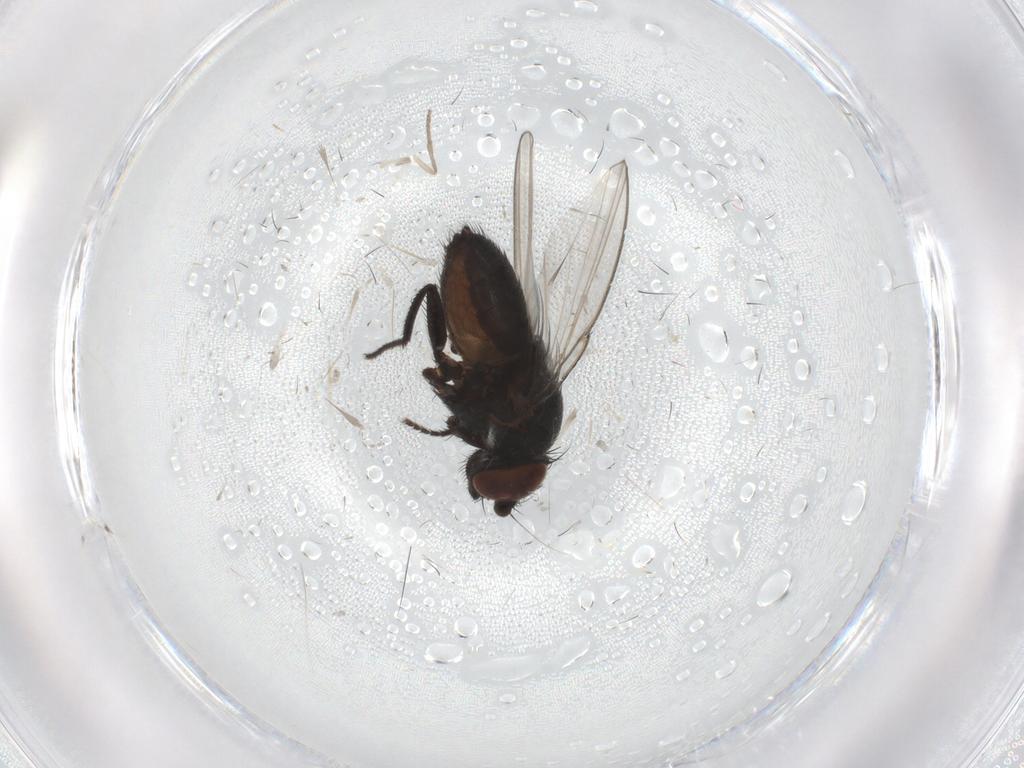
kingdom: Animalia
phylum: Arthropoda
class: Insecta
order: Diptera
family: Milichiidae
